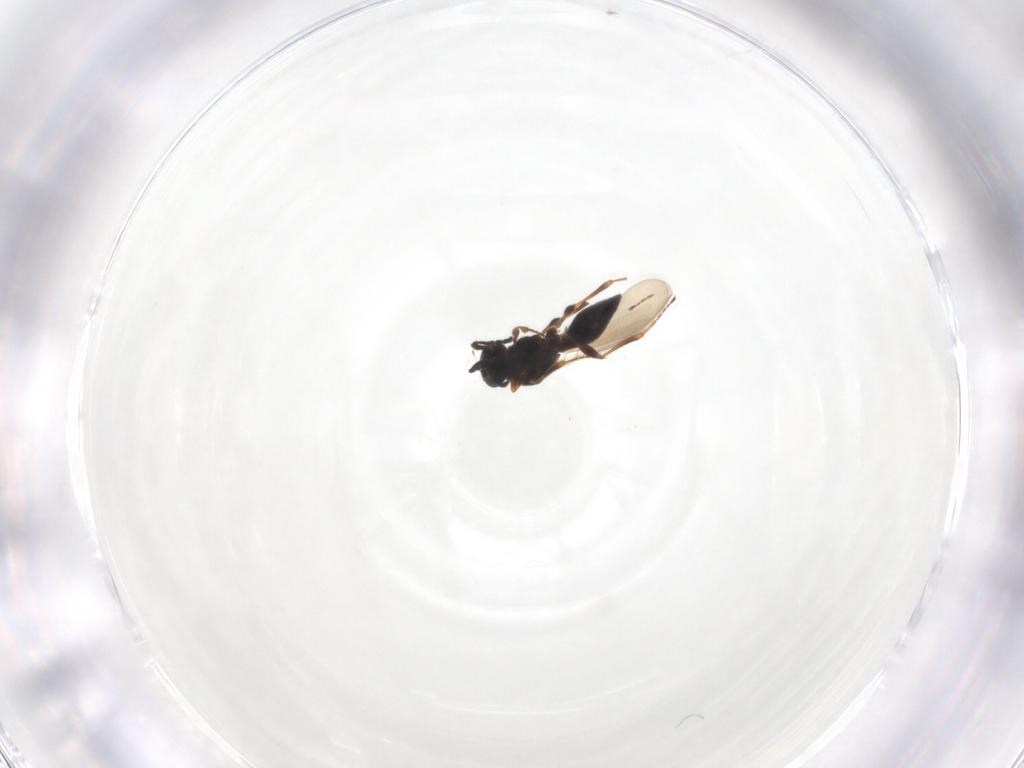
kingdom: Animalia
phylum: Arthropoda
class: Insecta
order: Hymenoptera
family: Platygastridae
